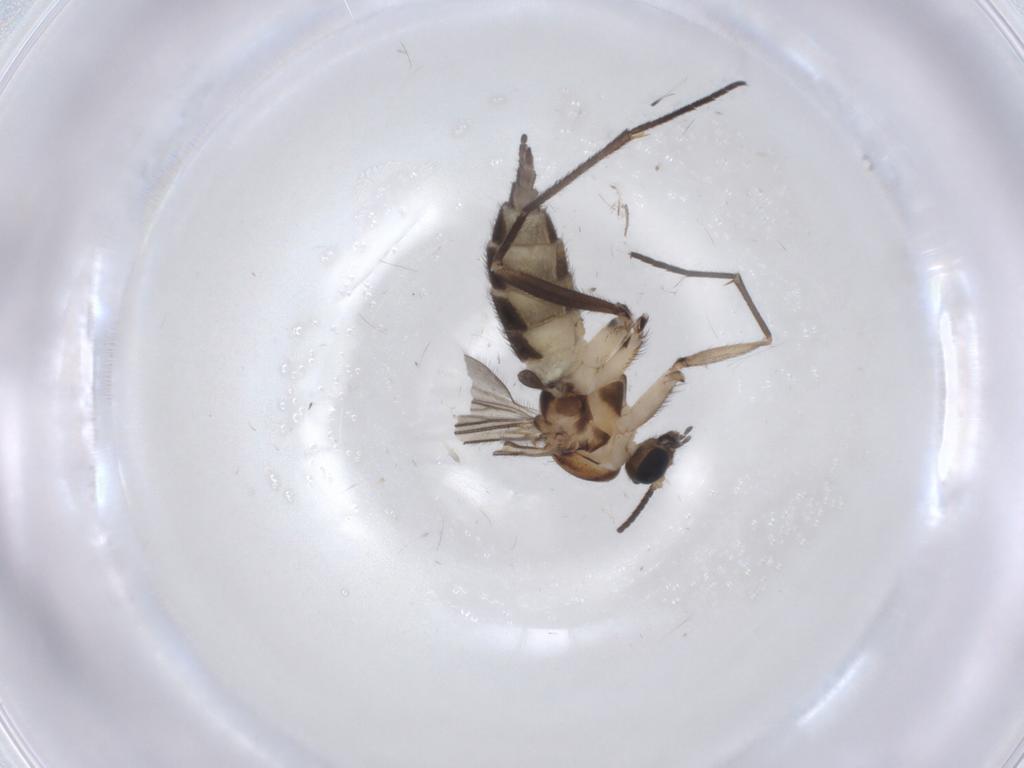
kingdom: Animalia
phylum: Arthropoda
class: Insecta
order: Diptera
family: Sciaridae
